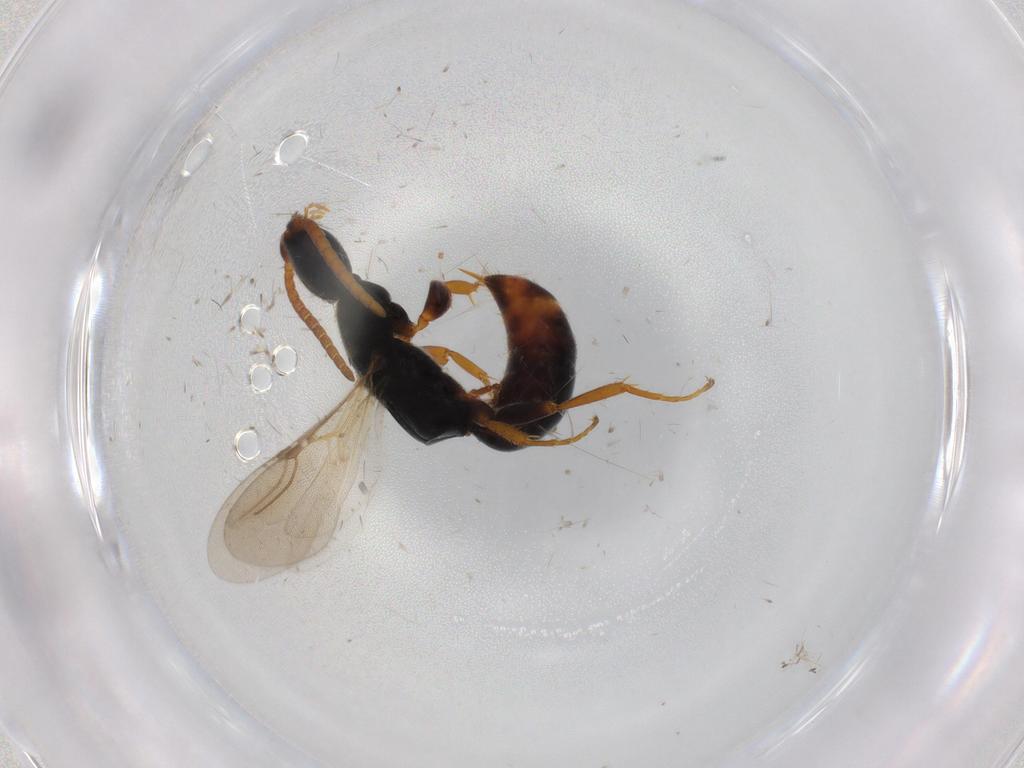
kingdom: Animalia
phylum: Arthropoda
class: Insecta
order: Hymenoptera
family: Bethylidae
